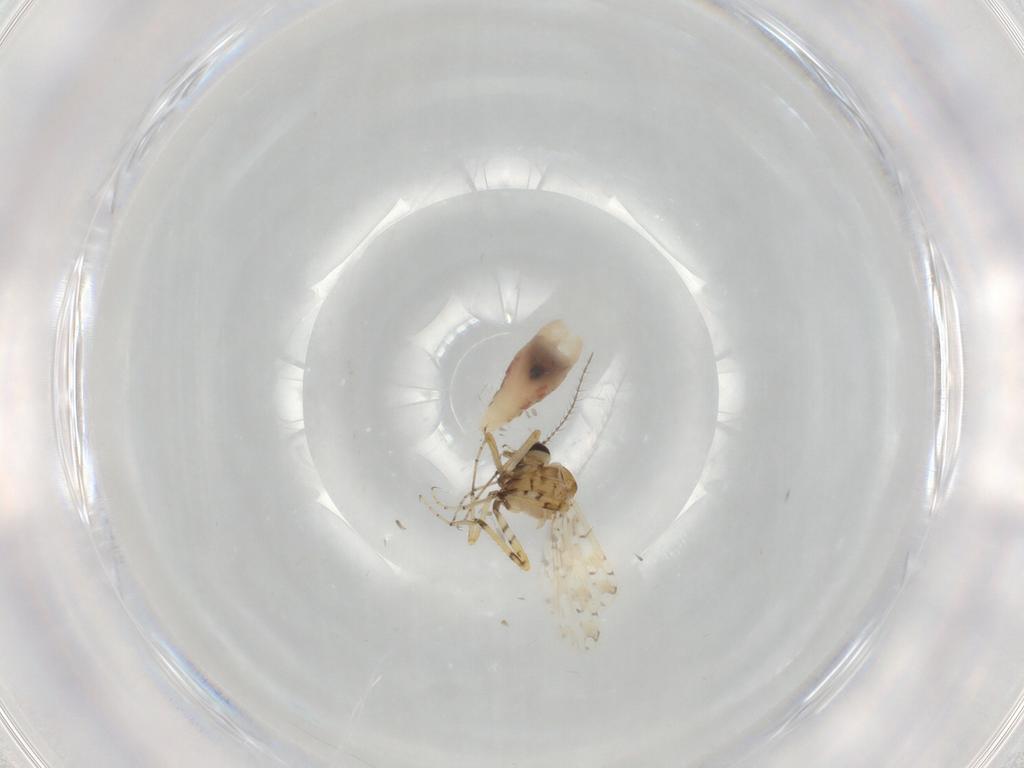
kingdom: Animalia
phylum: Arthropoda
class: Insecta
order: Diptera
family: Ceratopogonidae
